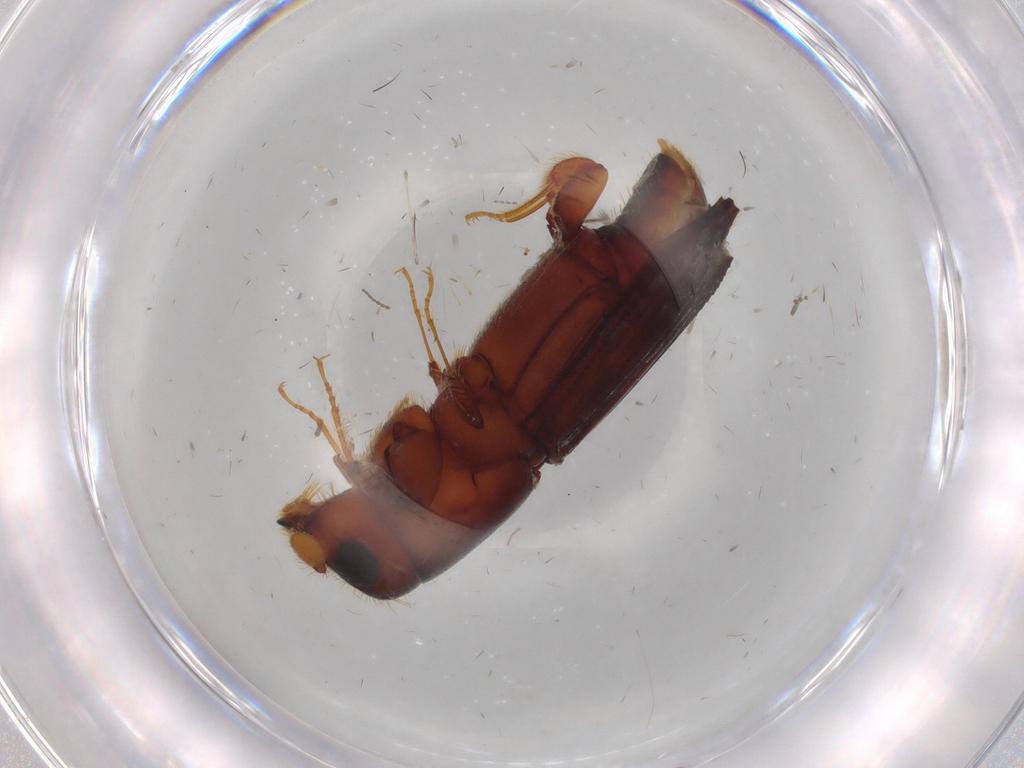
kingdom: Animalia
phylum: Arthropoda
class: Insecta
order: Coleoptera
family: Curculionidae
